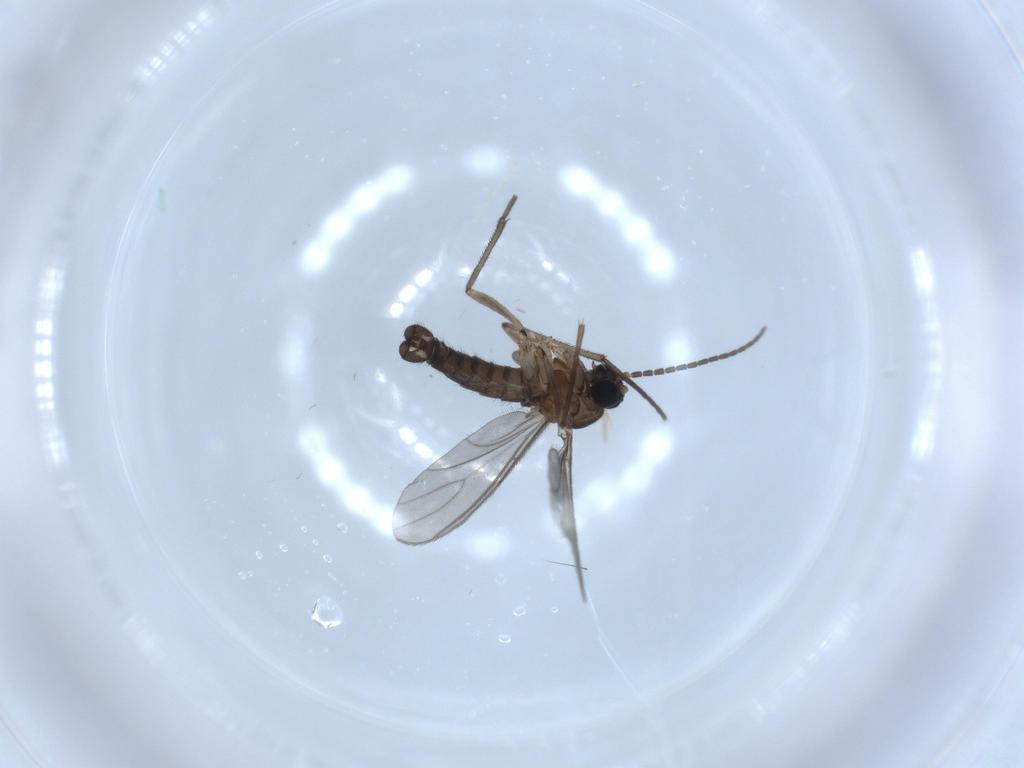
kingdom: Animalia
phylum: Arthropoda
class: Insecta
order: Diptera
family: Sciaridae
